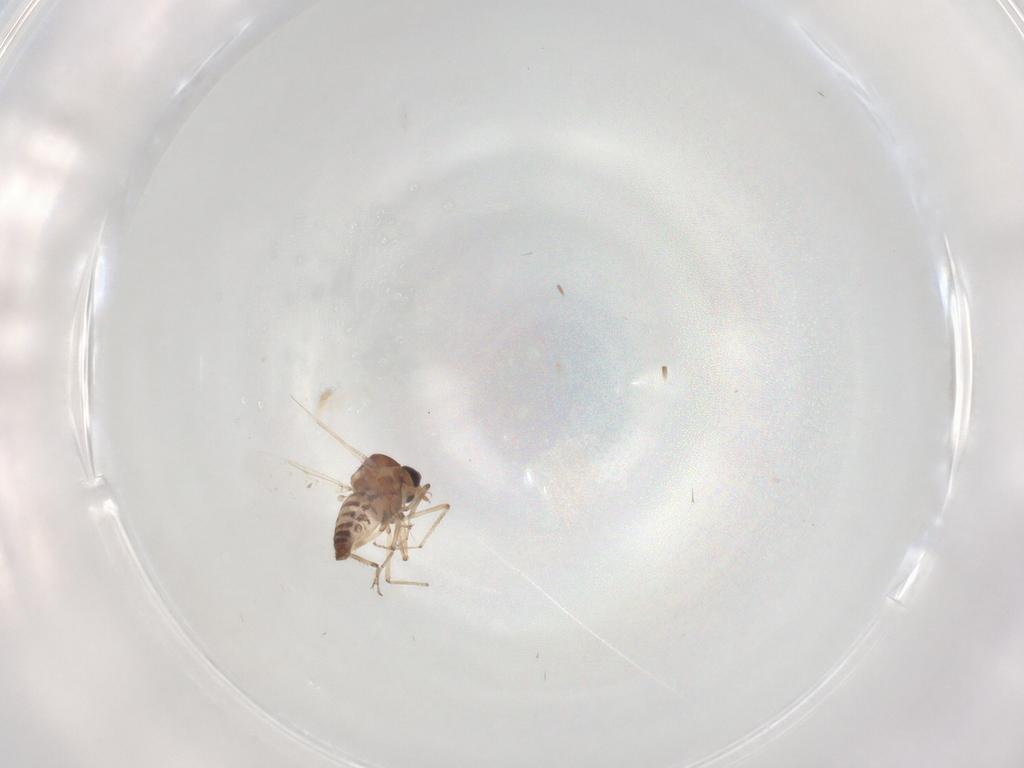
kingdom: Animalia
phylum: Arthropoda
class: Insecta
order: Diptera
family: Ceratopogonidae
